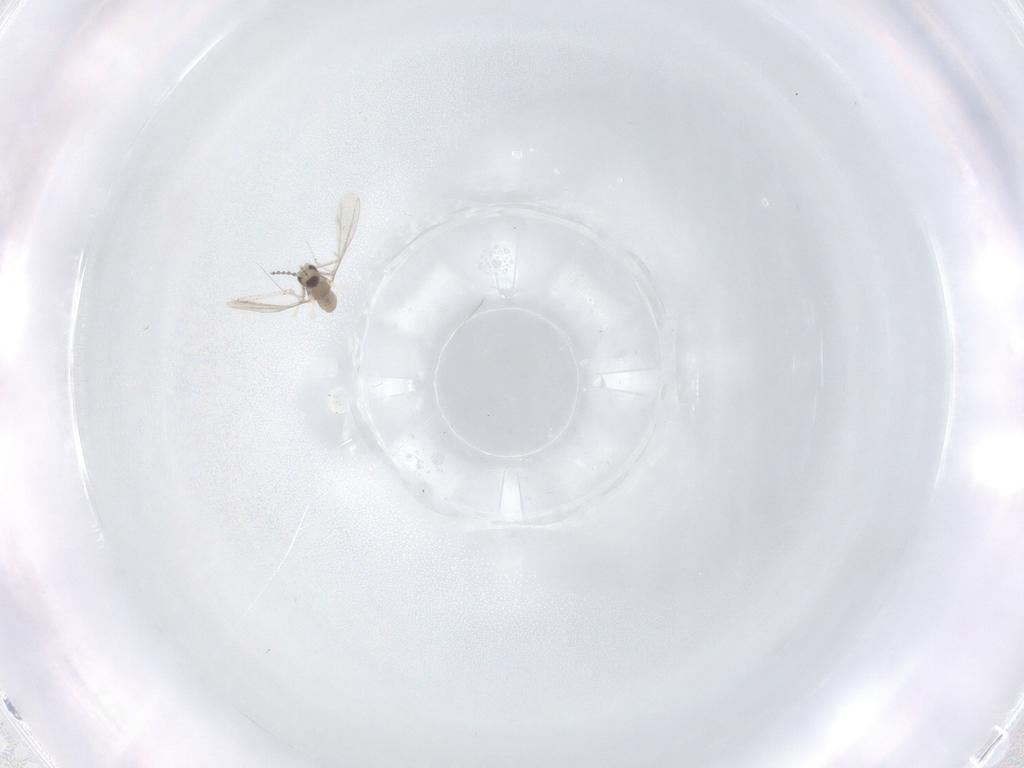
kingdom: Animalia
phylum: Arthropoda
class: Insecta
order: Diptera
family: Cecidomyiidae
